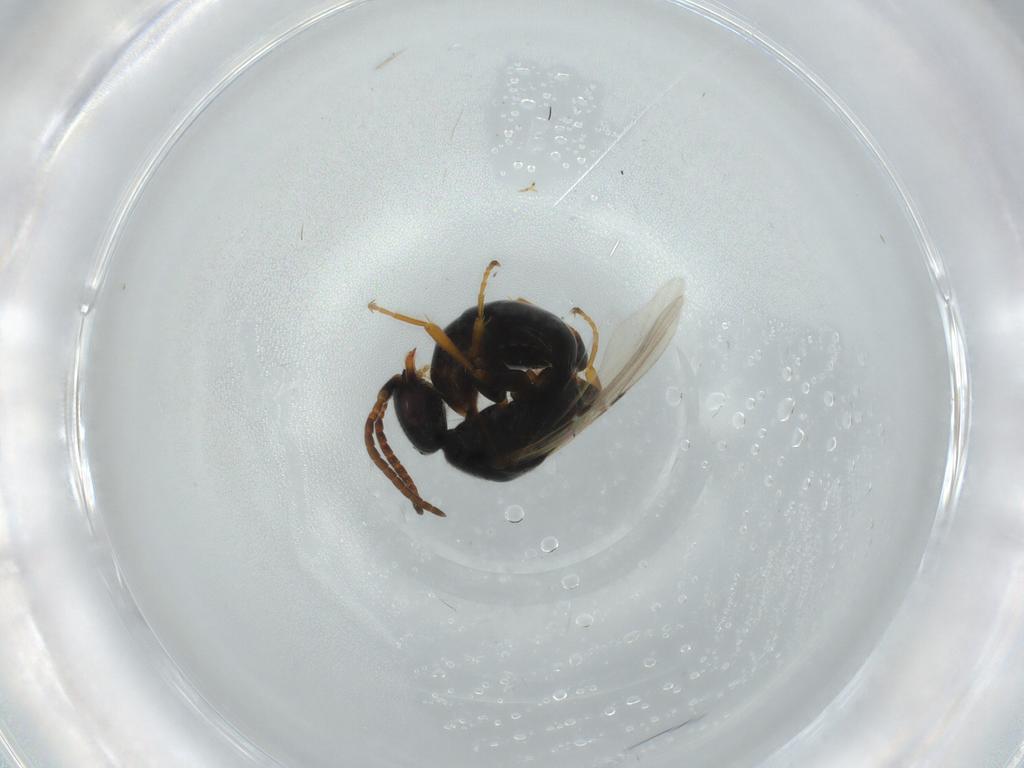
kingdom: Animalia
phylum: Arthropoda
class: Insecta
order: Hymenoptera
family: Bethylidae
